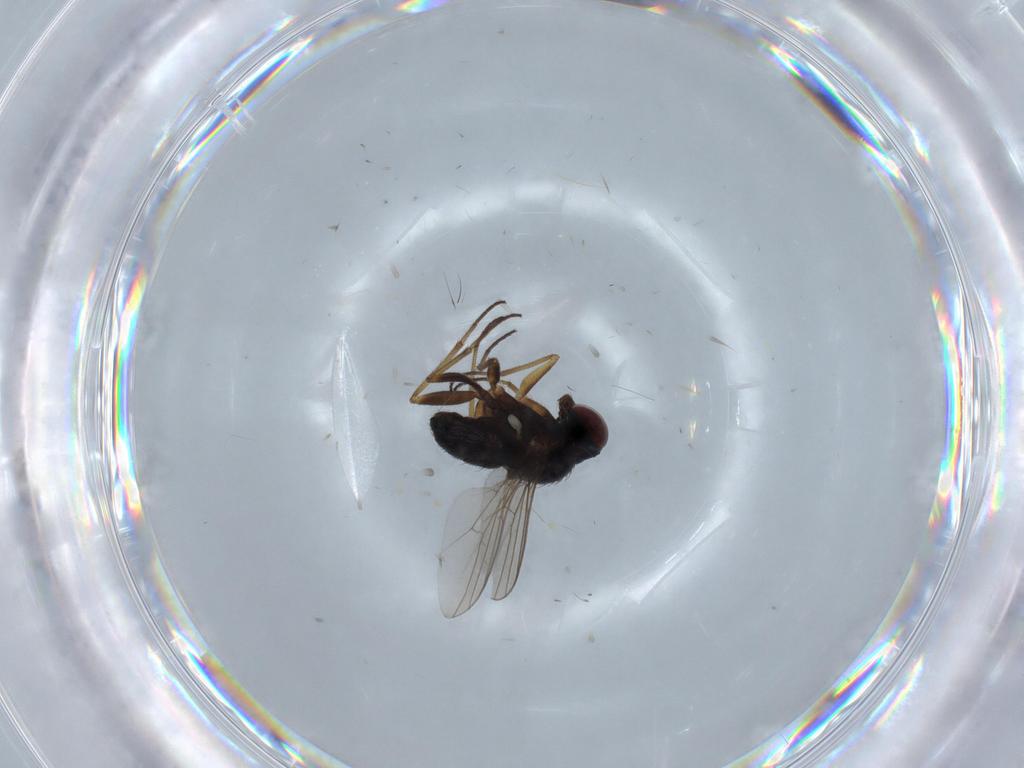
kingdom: Animalia
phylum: Arthropoda
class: Insecta
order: Diptera
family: Dolichopodidae
